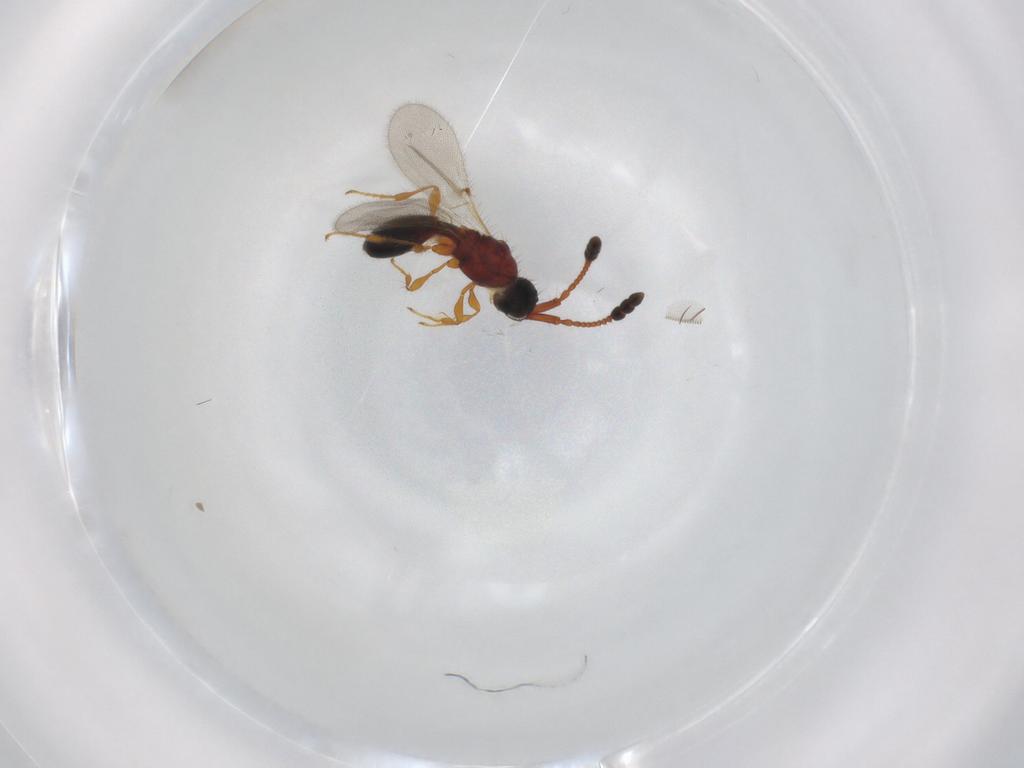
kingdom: Animalia
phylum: Arthropoda
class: Insecta
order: Hymenoptera
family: Diapriidae
